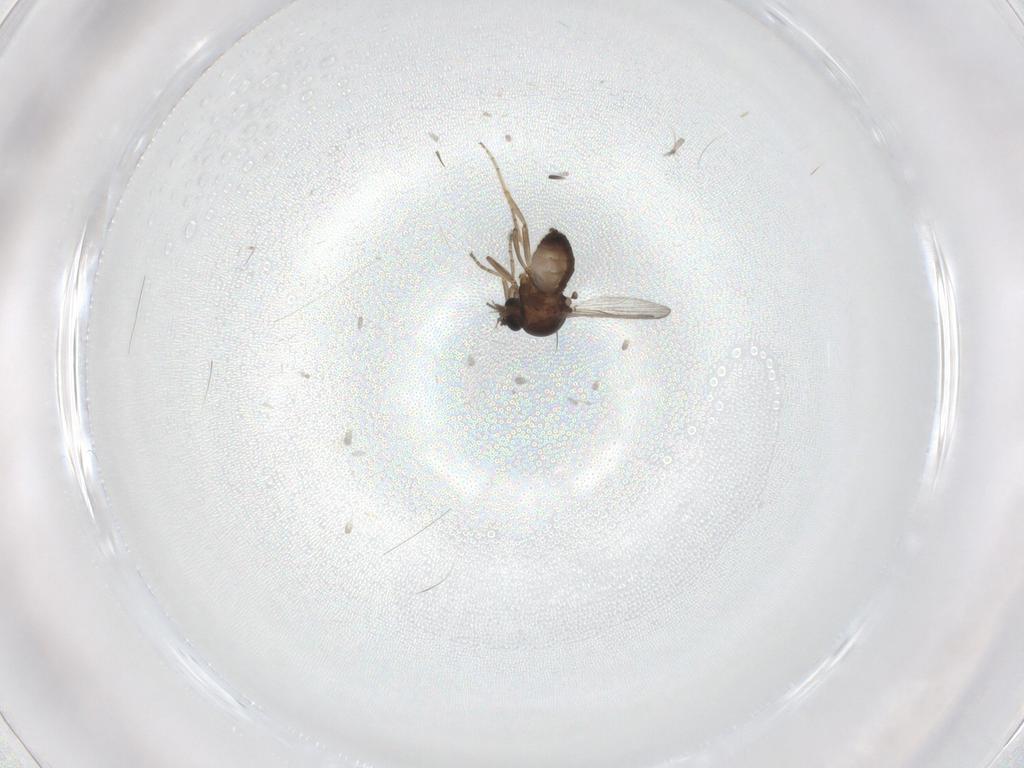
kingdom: Animalia
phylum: Arthropoda
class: Insecta
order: Diptera
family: Ceratopogonidae
